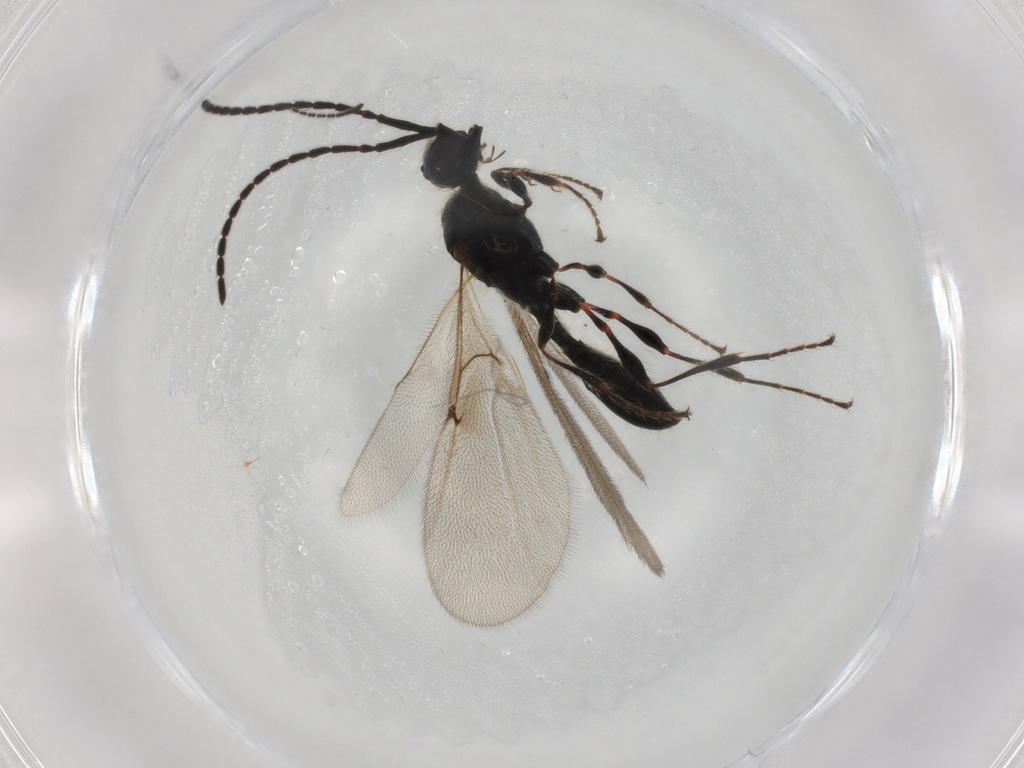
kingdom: Animalia
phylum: Arthropoda
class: Insecta
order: Hymenoptera
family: Diapriidae
